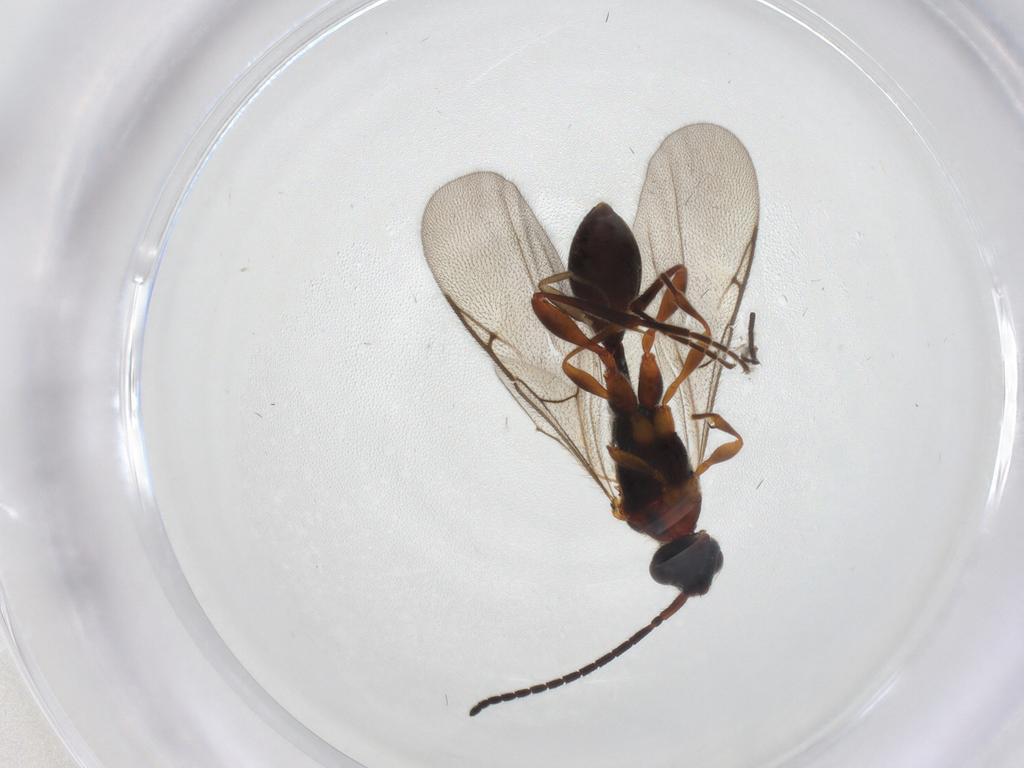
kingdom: Animalia
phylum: Arthropoda
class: Insecta
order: Hymenoptera
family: Diapriidae
